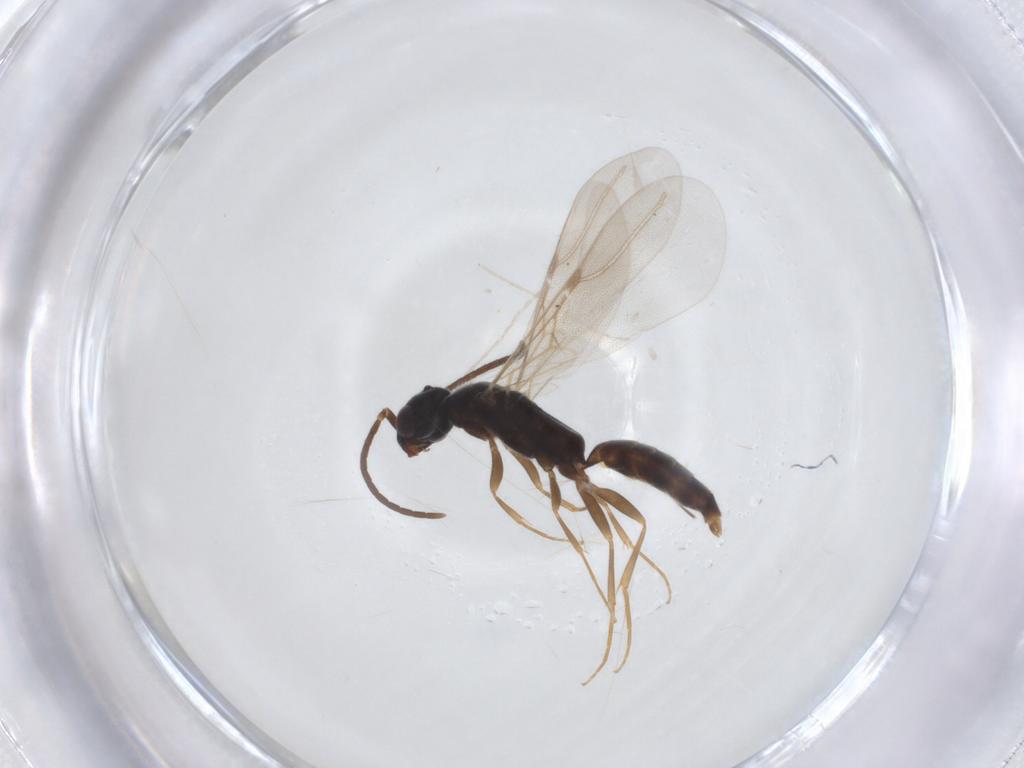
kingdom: Animalia
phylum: Arthropoda
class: Insecta
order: Hymenoptera
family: Bethylidae
